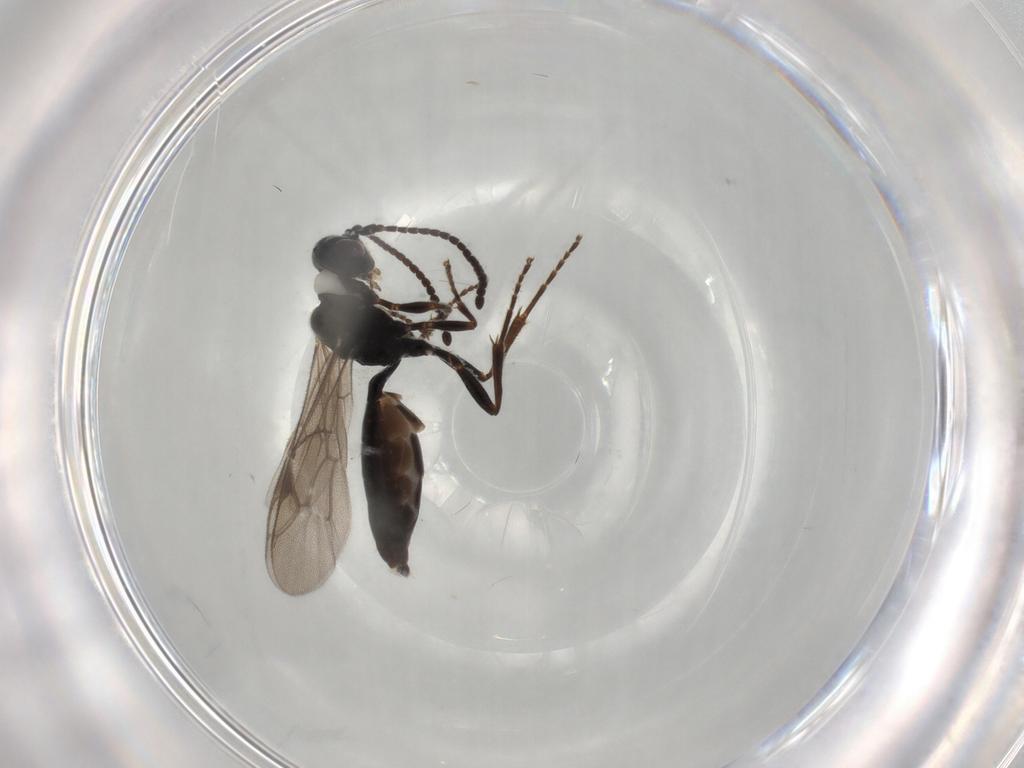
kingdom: Animalia
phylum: Arthropoda
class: Insecta
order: Hymenoptera
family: Ichneumonidae
